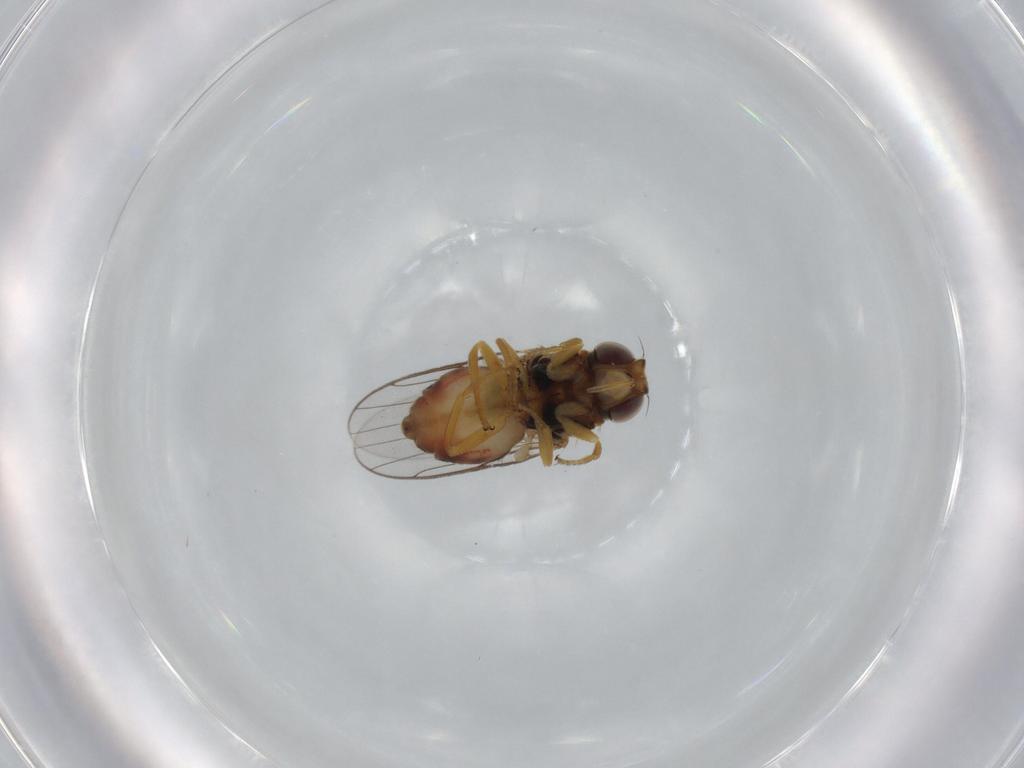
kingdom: Animalia
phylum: Arthropoda
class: Insecta
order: Diptera
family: Chloropidae
